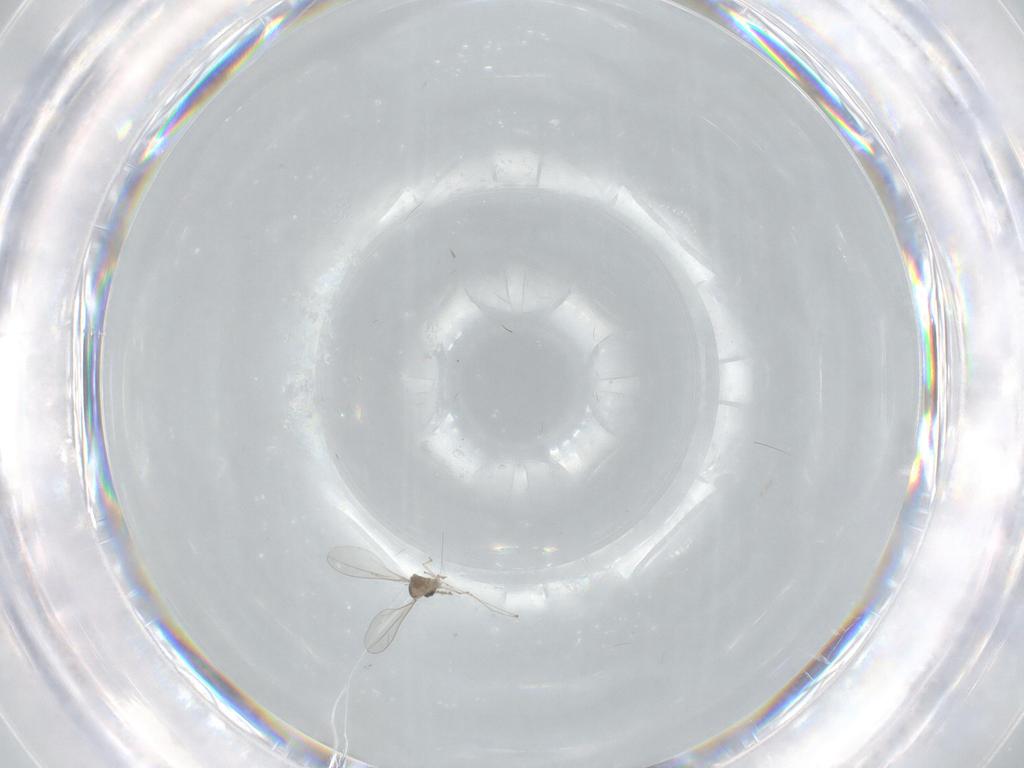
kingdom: Animalia
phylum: Arthropoda
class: Insecta
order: Diptera
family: Cecidomyiidae
